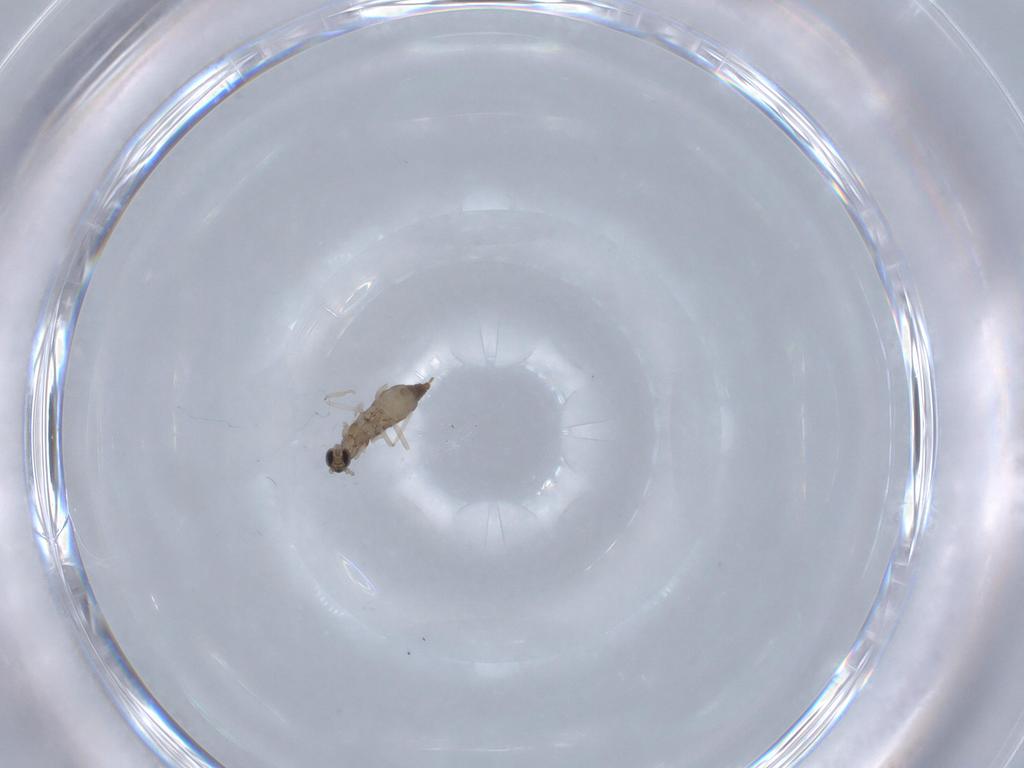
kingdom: Animalia
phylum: Arthropoda
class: Insecta
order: Diptera
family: Cecidomyiidae
